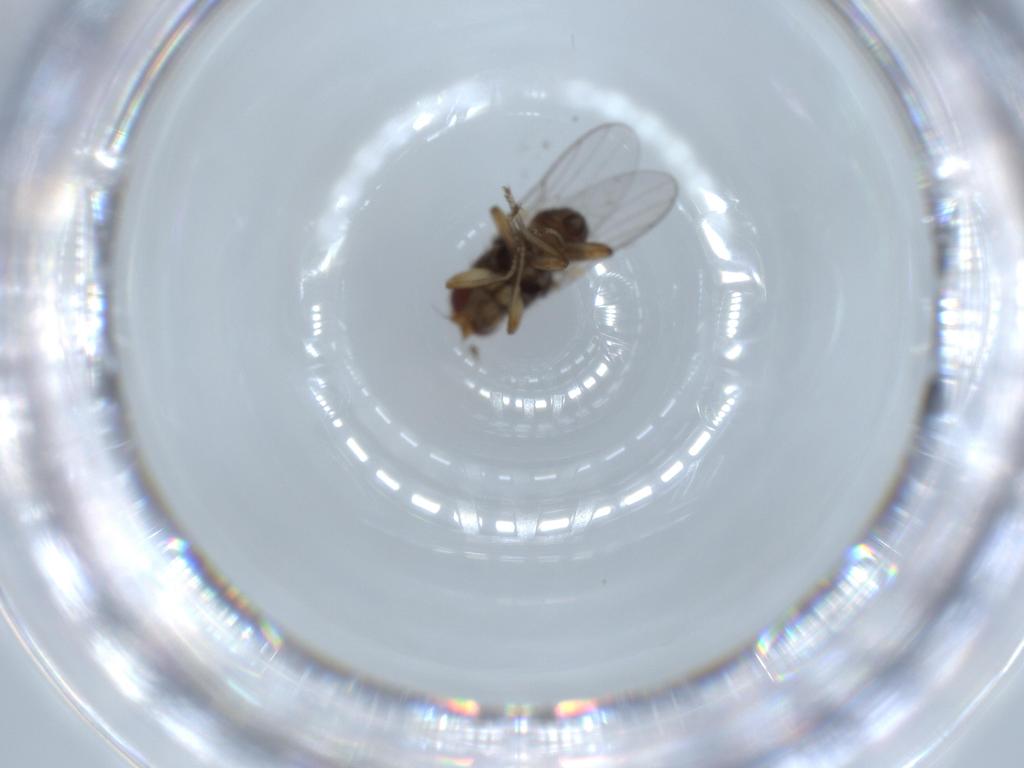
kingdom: Animalia
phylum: Arthropoda
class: Insecta
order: Diptera
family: Chloropidae
